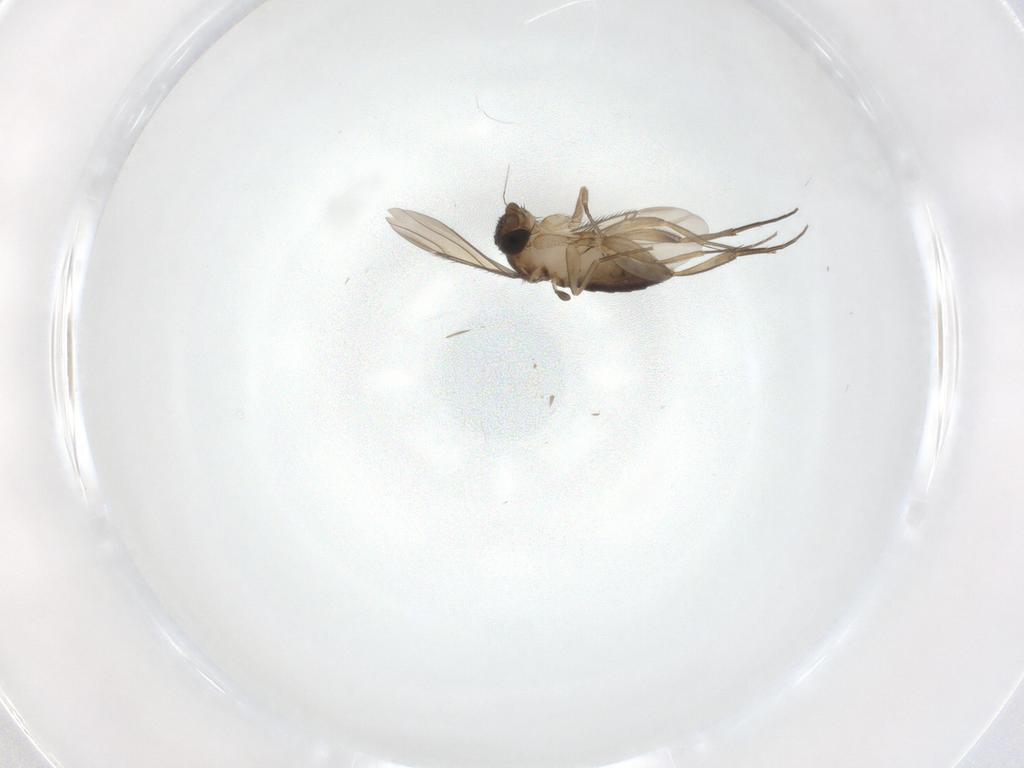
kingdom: Animalia
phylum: Arthropoda
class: Insecta
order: Diptera
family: Phoridae
